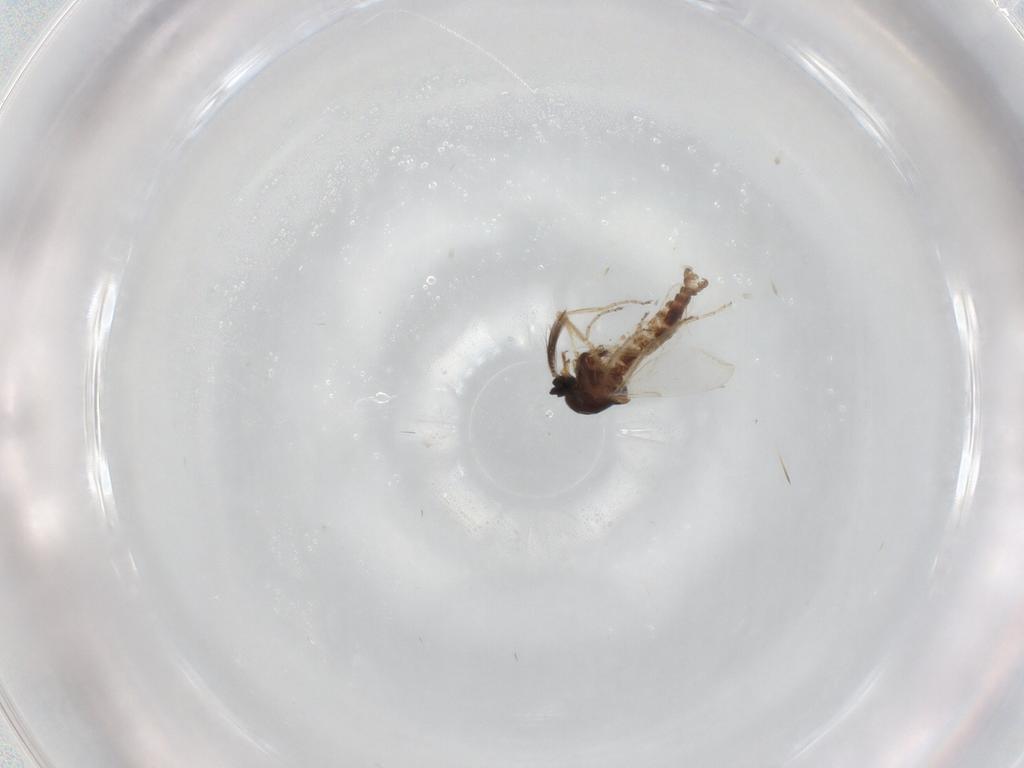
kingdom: Animalia
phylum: Arthropoda
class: Insecta
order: Diptera
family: Ceratopogonidae
